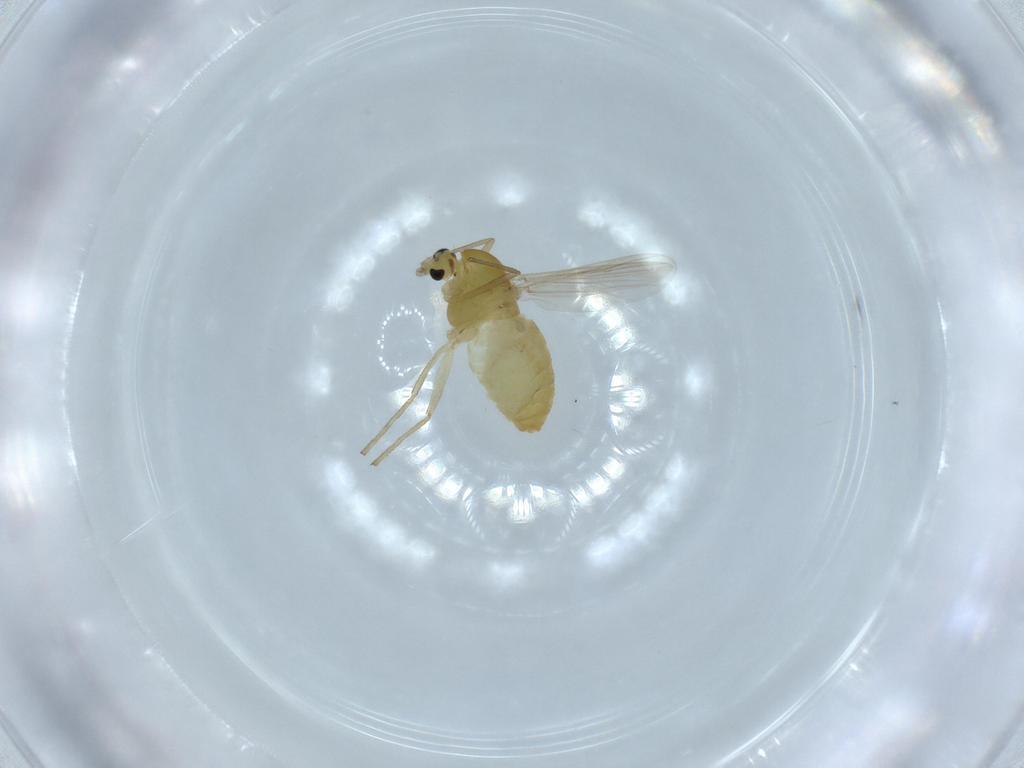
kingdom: Animalia
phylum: Arthropoda
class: Insecta
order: Diptera
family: Chironomidae
